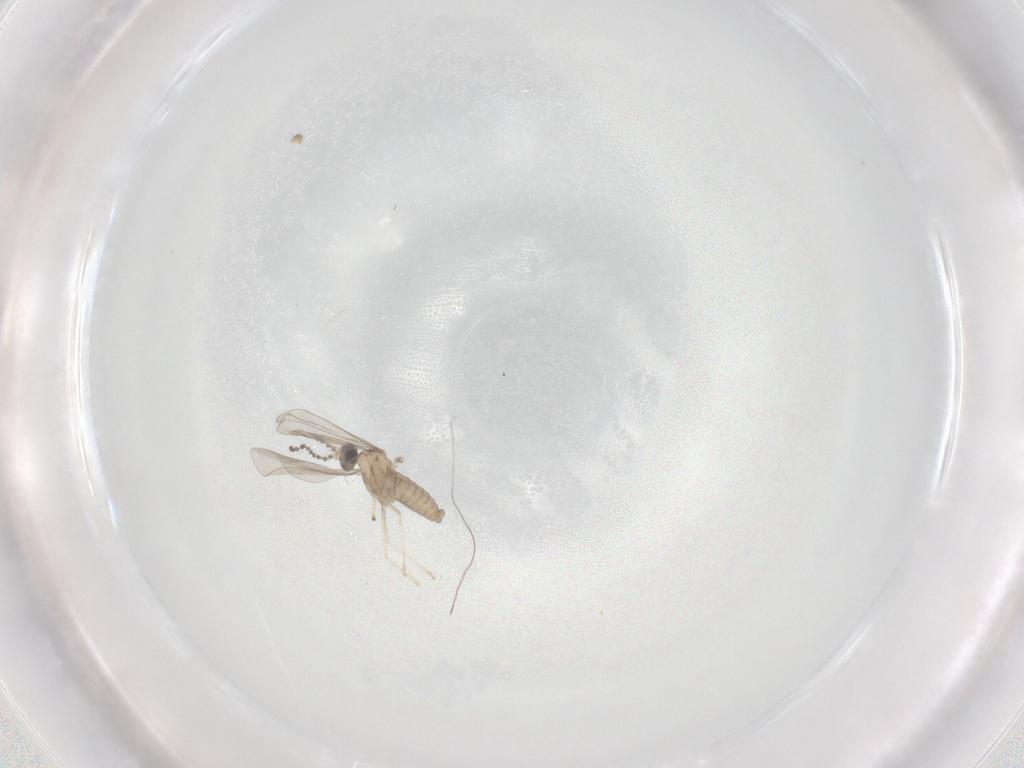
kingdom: Animalia
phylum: Arthropoda
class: Insecta
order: Diptera
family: Cecidomyiidae
